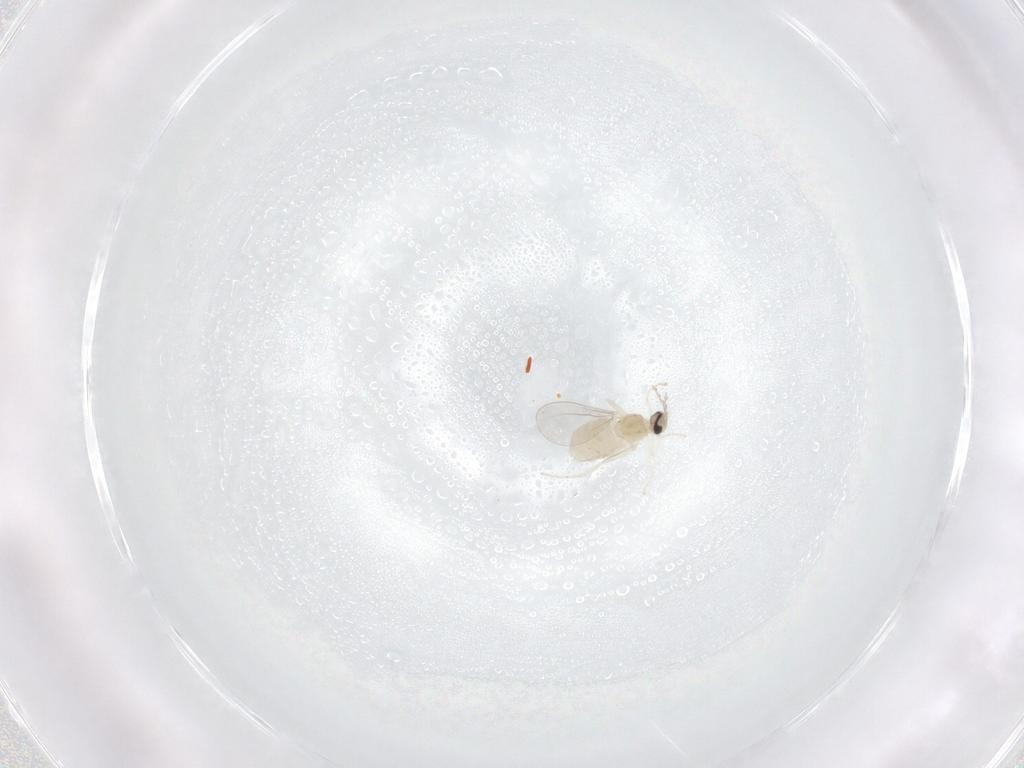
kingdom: Animalia
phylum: Arthropoda
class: Insecta
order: Diptera
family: Cecidomyiidae
